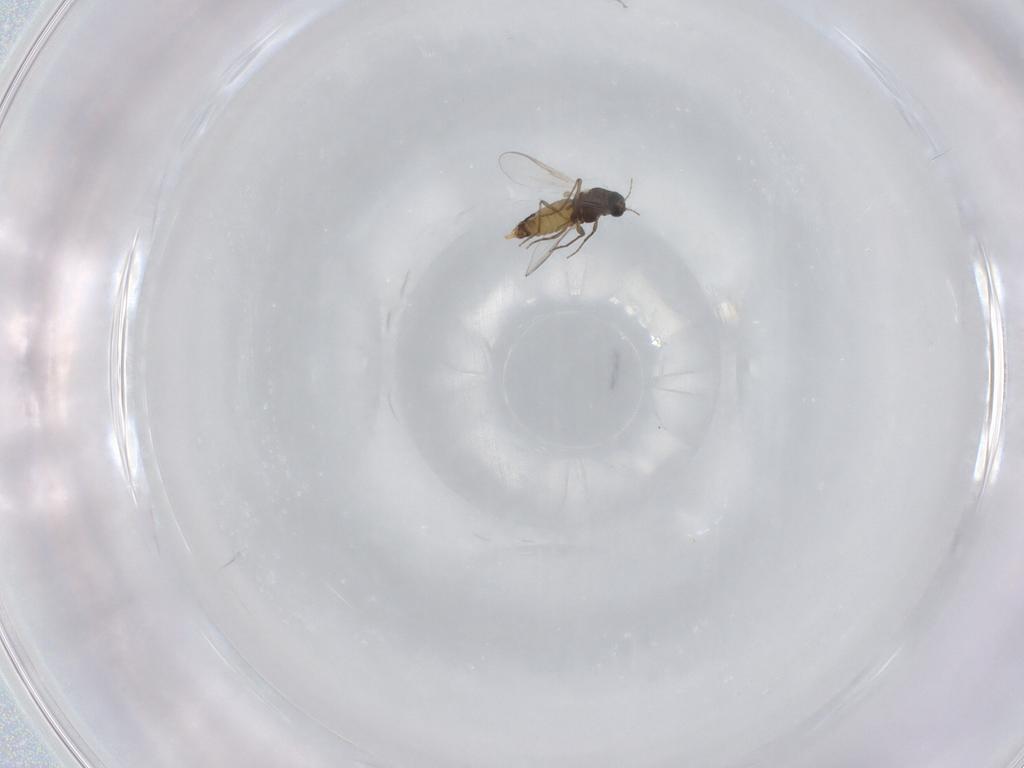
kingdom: Animalia
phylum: Arthropoda
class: Insecta
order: Diptera
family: Chironomidae
